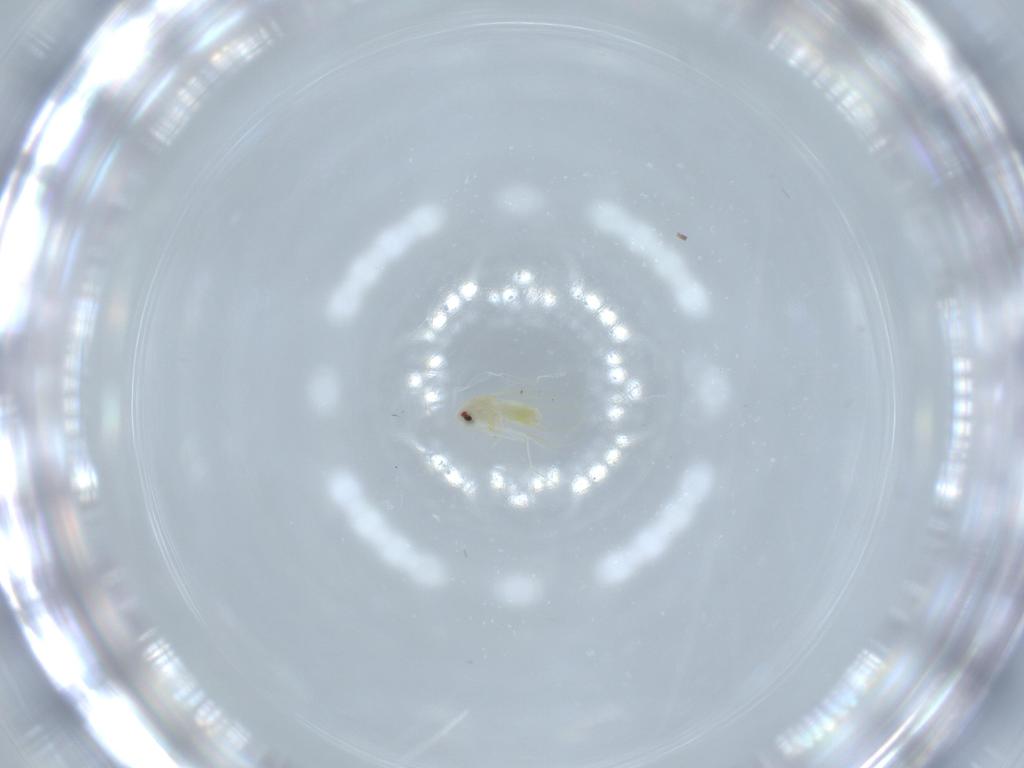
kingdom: Animalia
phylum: Arthropoda
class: Insecta
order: Hemiptera
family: Aleyrodidae
